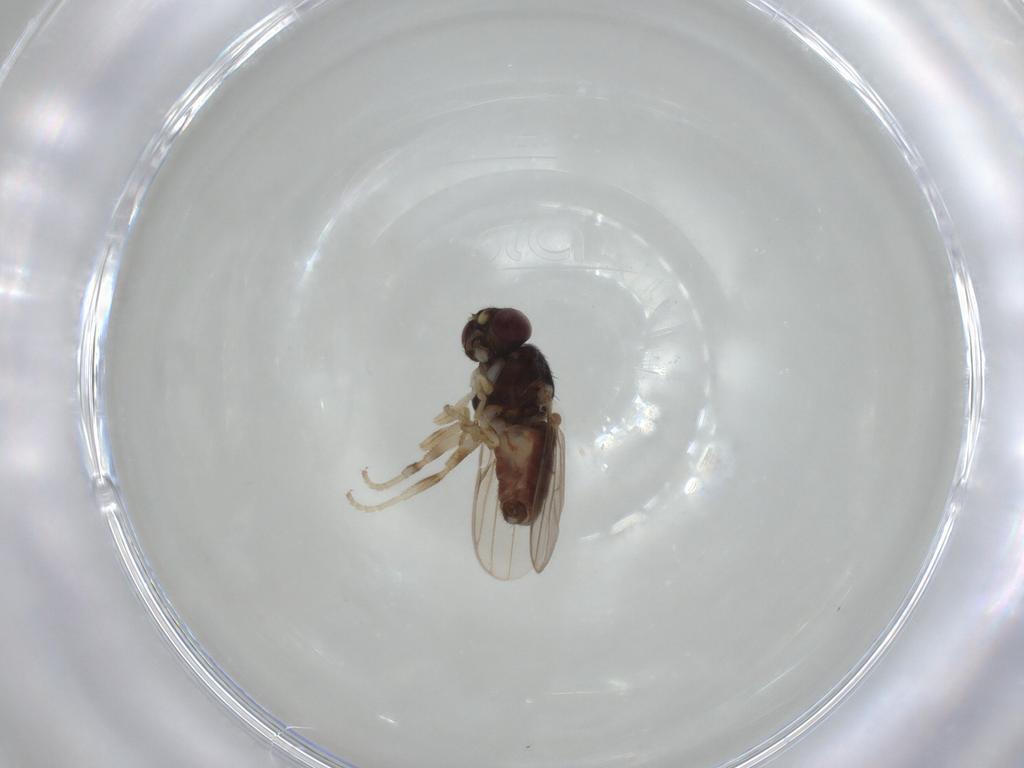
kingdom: Animalia
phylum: Arthropoda
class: Insecta
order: Diptera
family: Chloropidae
